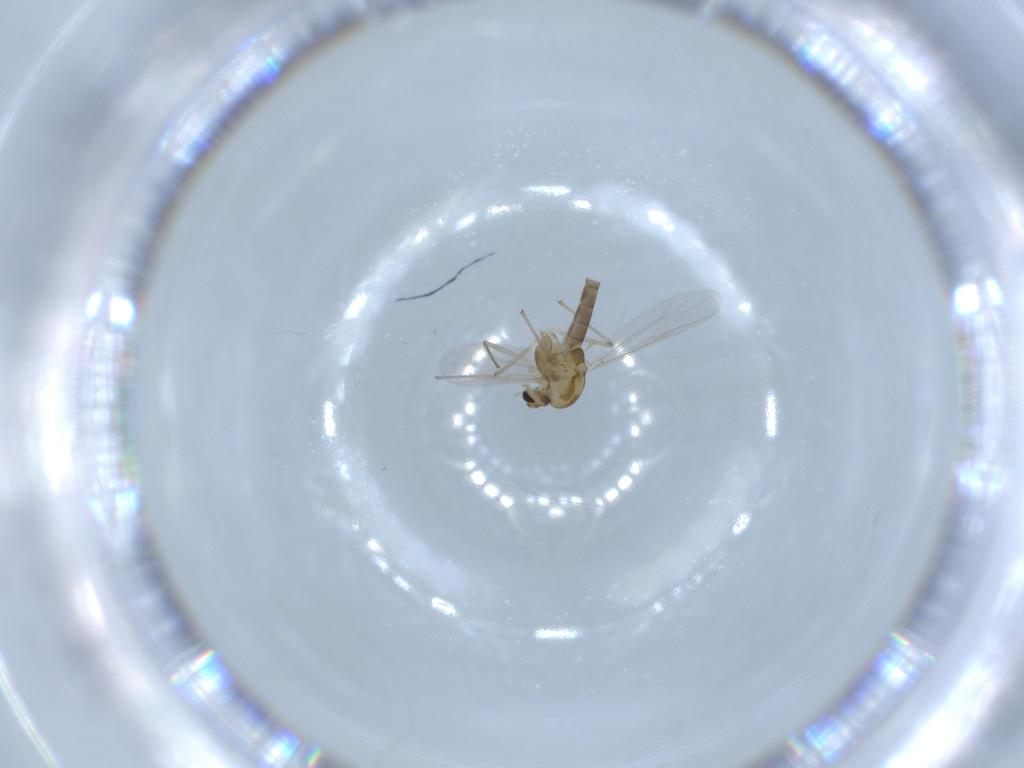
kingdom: Animalia
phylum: Arthropoda
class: Insecta
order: Diptera
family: Chironomidae
